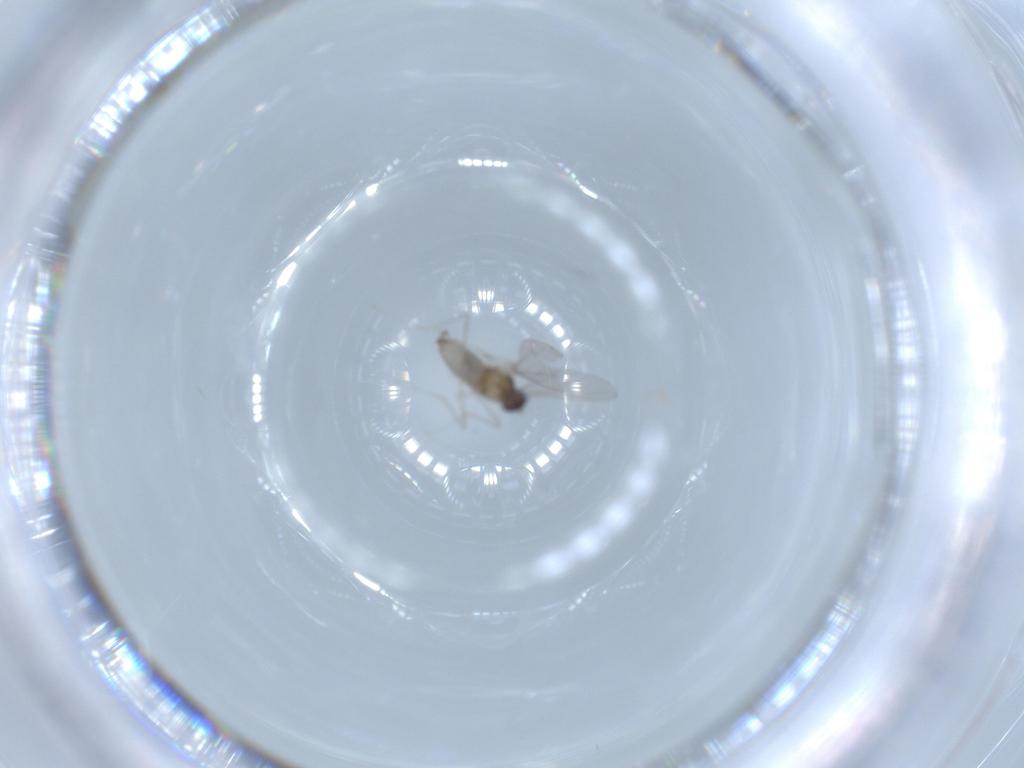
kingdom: Animalia
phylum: Arthropoda
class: Insecta
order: Diptera
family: Cecidomyiidae
